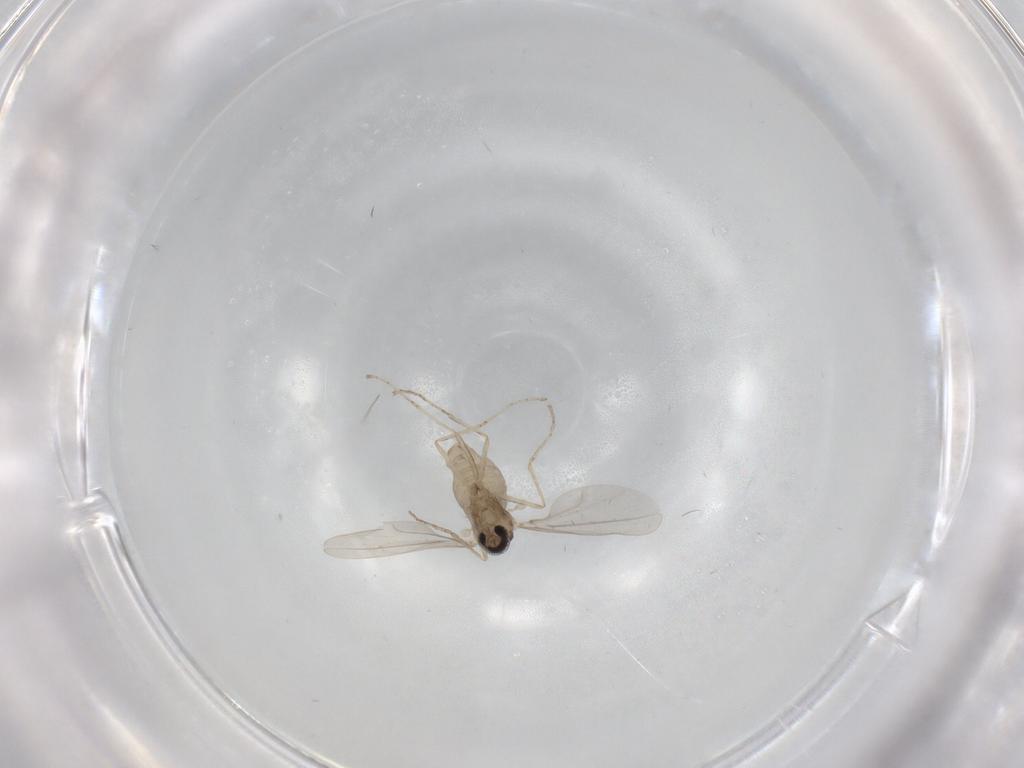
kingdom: Animalia
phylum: Arthropoda
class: Insecta
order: Diptera
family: Cecidomyiidae
